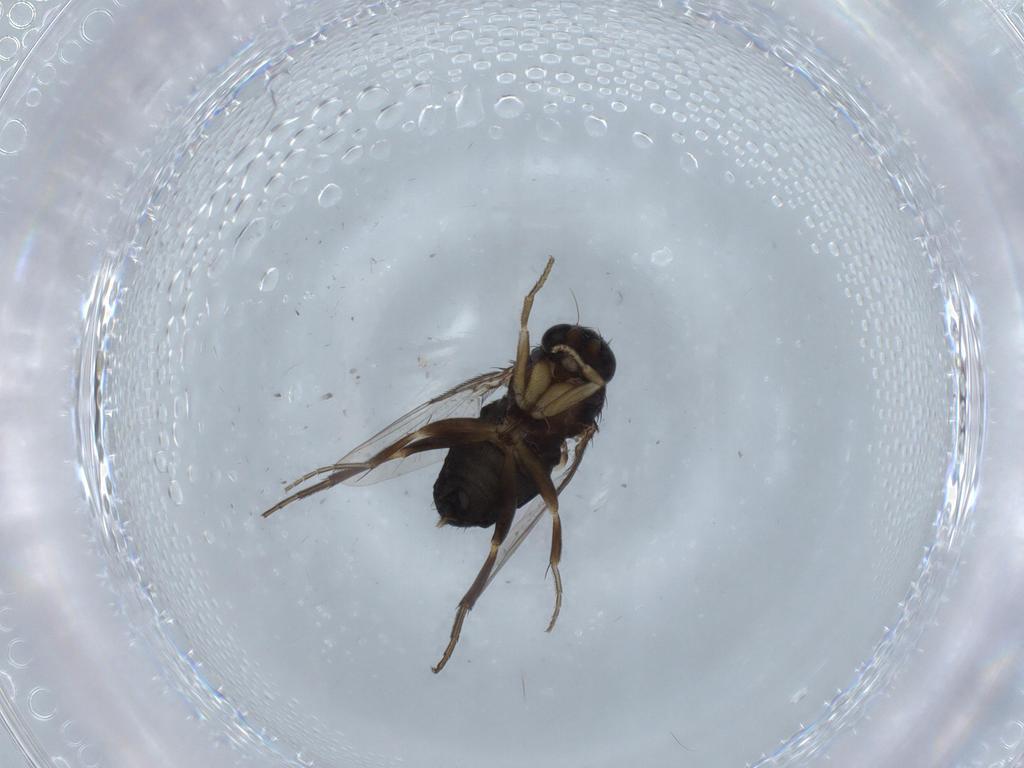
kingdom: Animalia
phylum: Arthropoda
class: Insecta
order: Diptera
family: Phoridae
